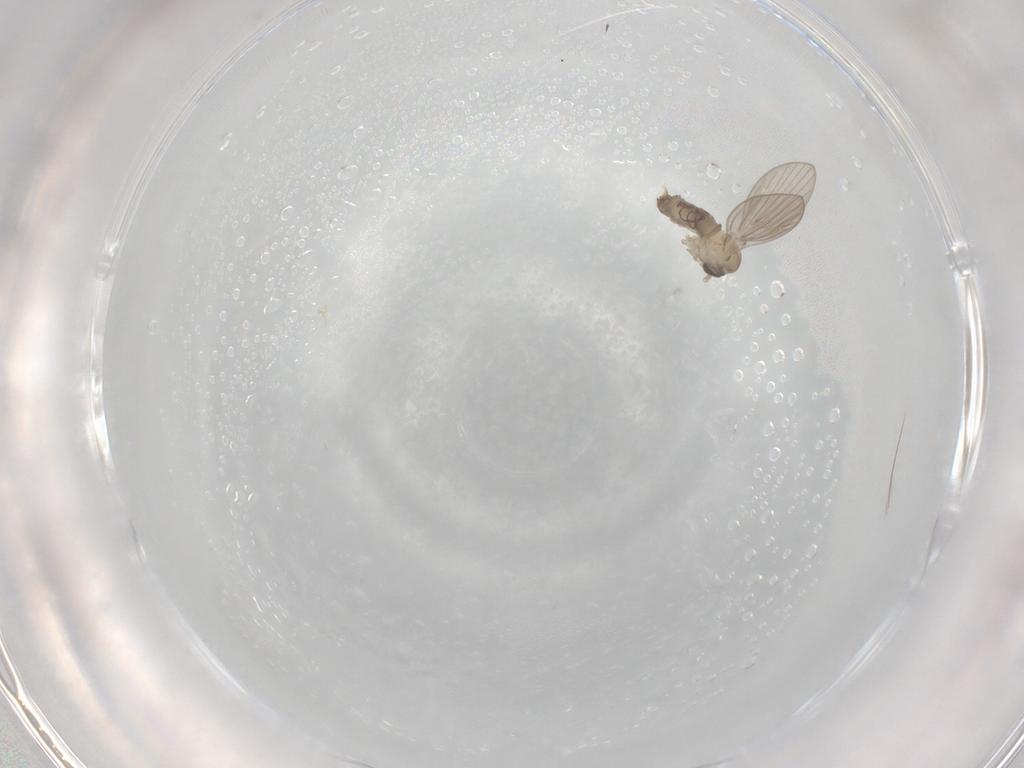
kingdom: Animalia
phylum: Arthropoda
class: Insecta
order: Diptera
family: Psychodidae
